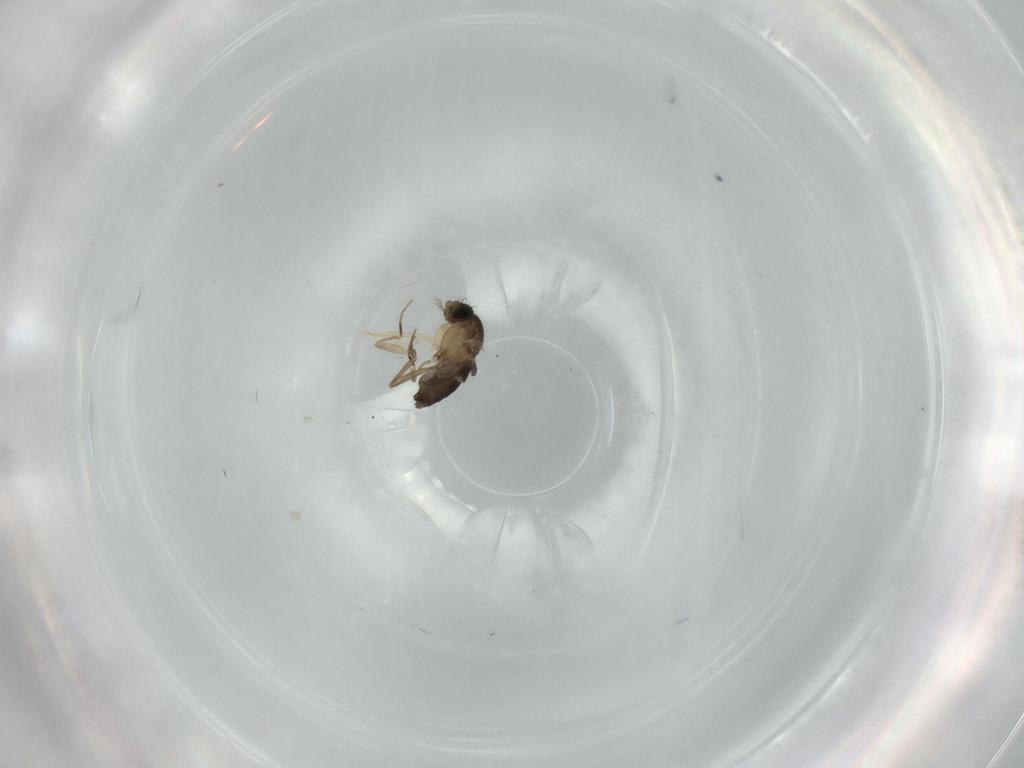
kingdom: Animalia
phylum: Arthropoda
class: Insecta
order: Diptera
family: Phoridae
